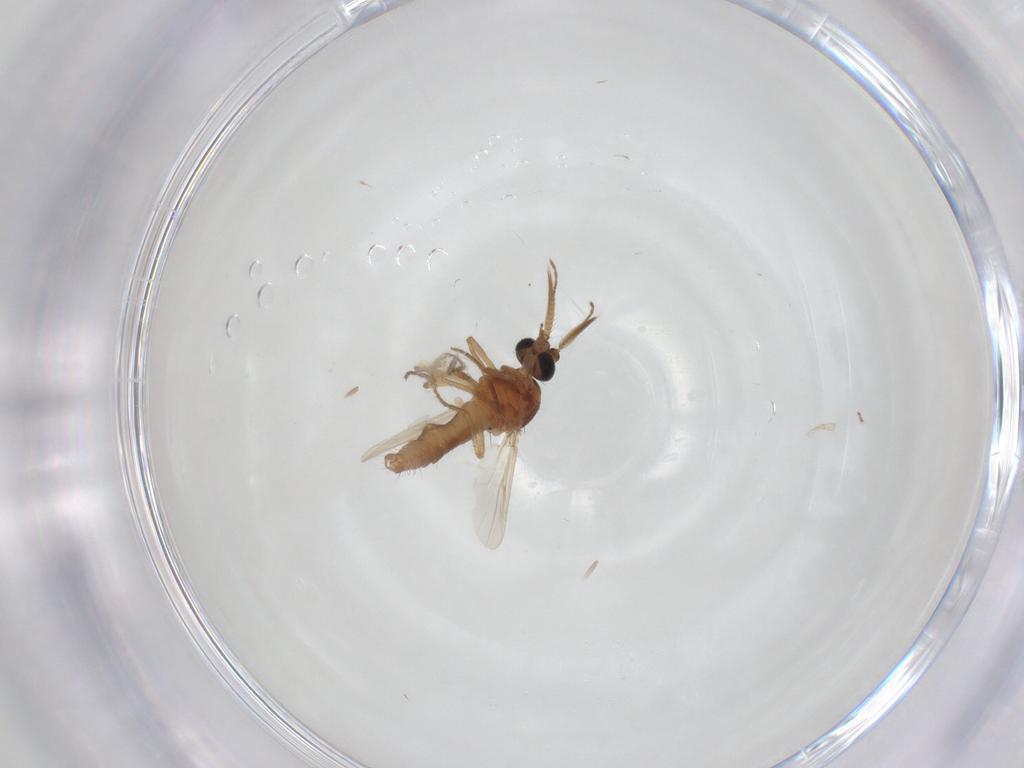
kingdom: Animalia
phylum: Arthropoda
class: Insecta
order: Diptera
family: Ceratopogonidae
